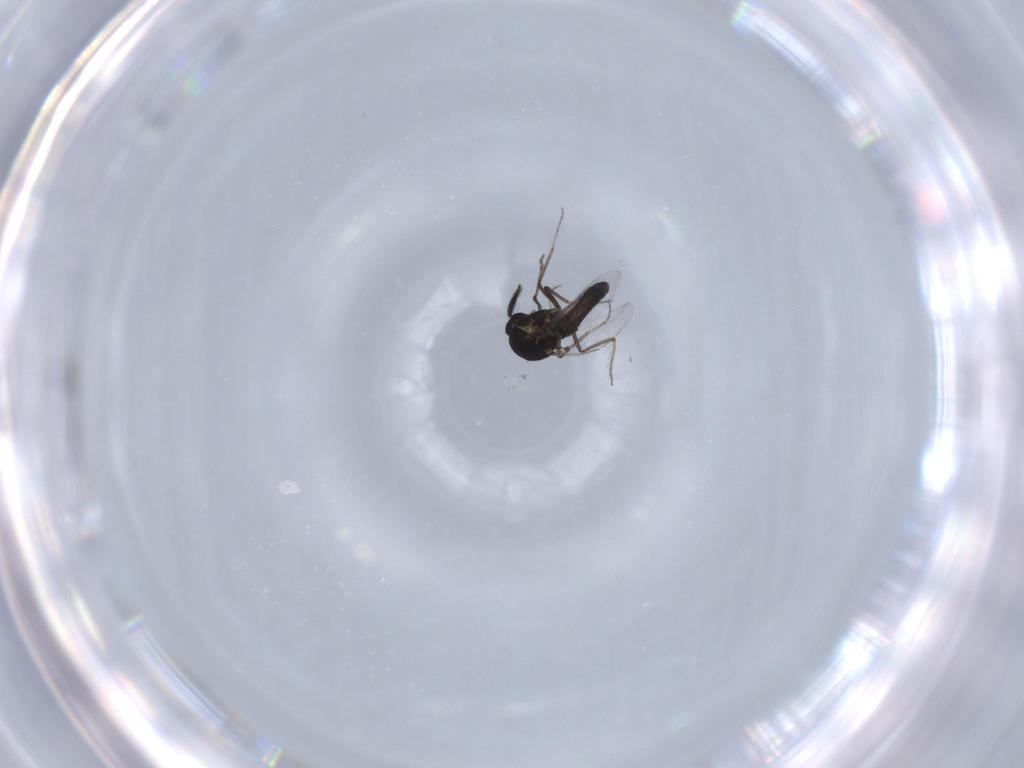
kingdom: Animalia
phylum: Arthropoda
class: Insecta
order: Diptera
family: Ceratopogonidae
